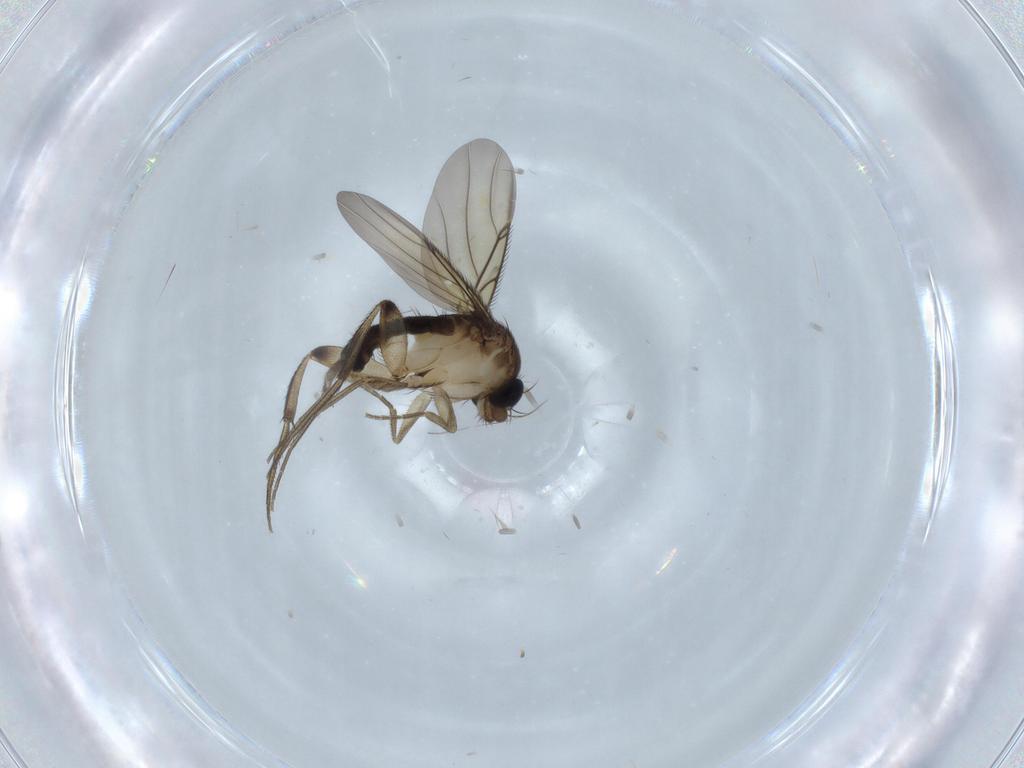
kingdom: Animalia
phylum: Arthropoda
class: Insecta
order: Diptera
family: Phoridae
